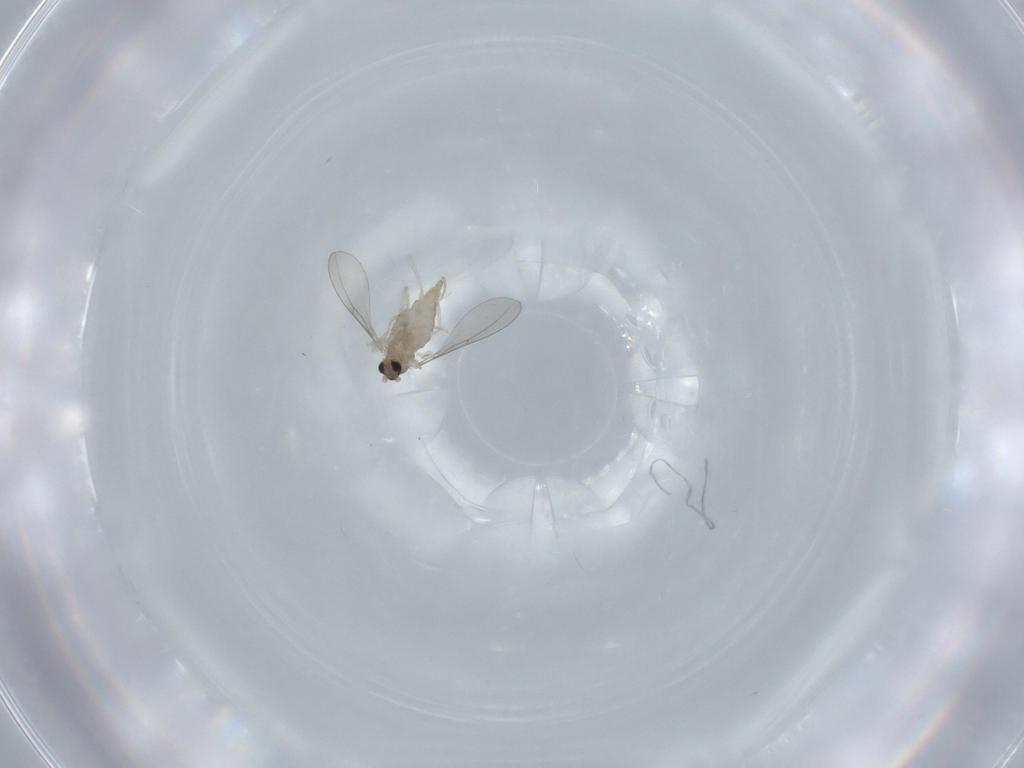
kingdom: Animalia
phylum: Arthropoda
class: Insecta
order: Diptera
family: Cecidomyiidae
